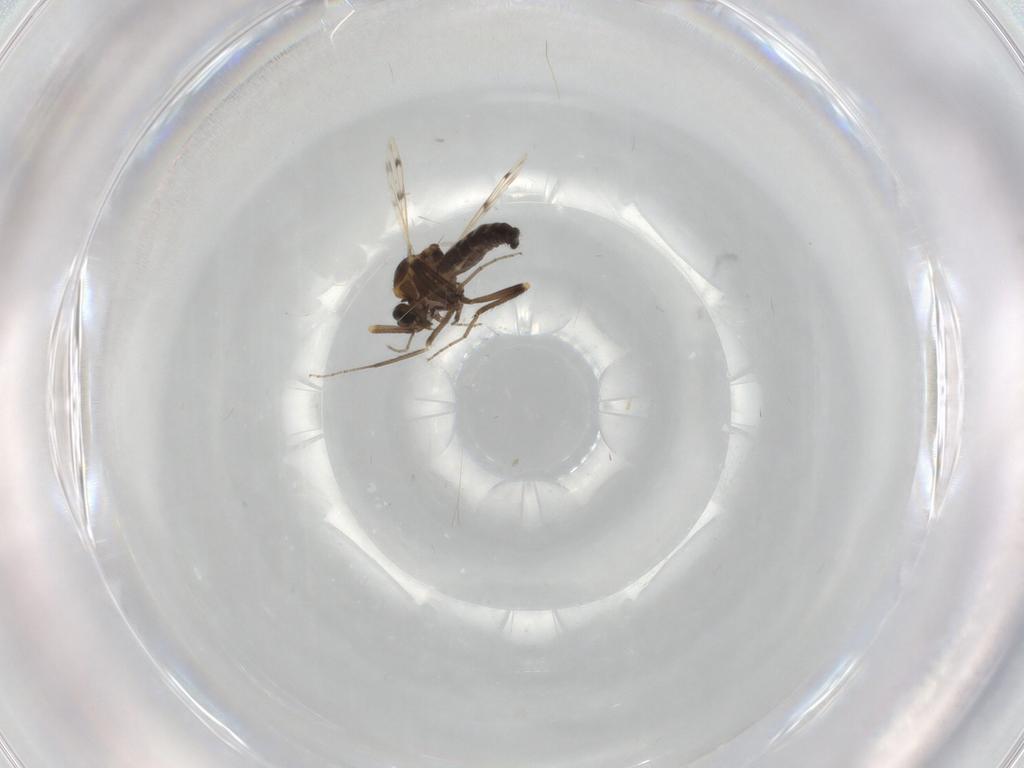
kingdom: Animalia
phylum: Arthropoda
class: Insecta
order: Diptera
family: Ceratopogonidae
